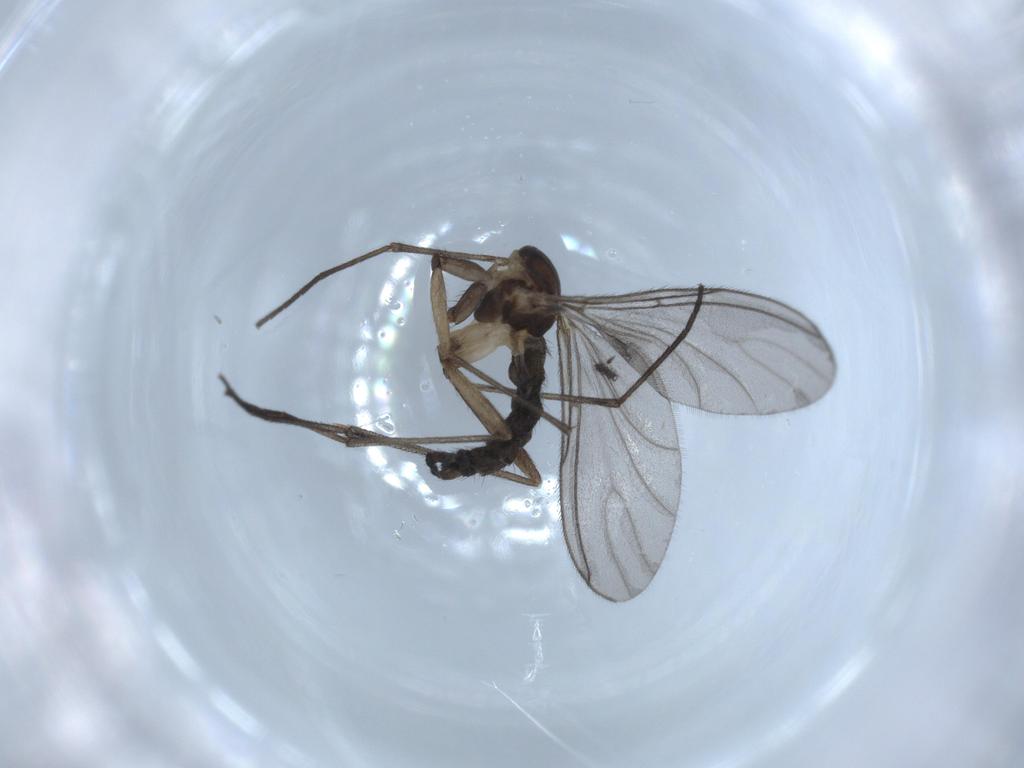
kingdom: Animalia
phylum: Arthropoda
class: Insecta
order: Diptera
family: Sciaridae
